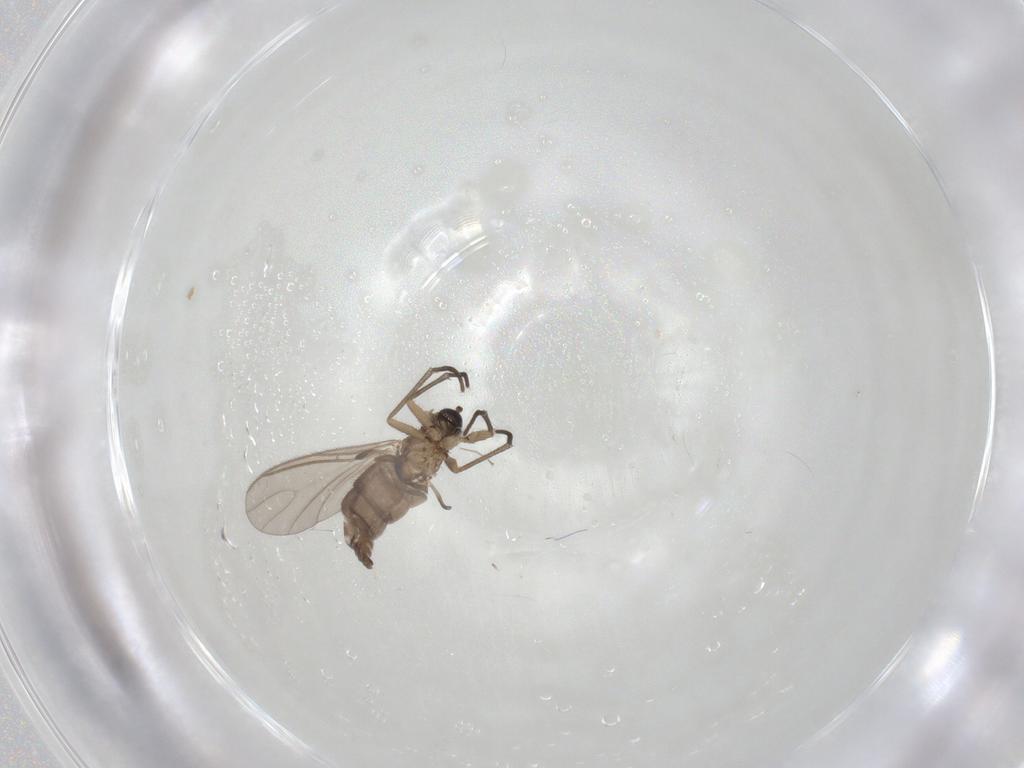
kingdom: Animalia
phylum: Arthropoda
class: Insecta
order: Diptera
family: Sciaridae
